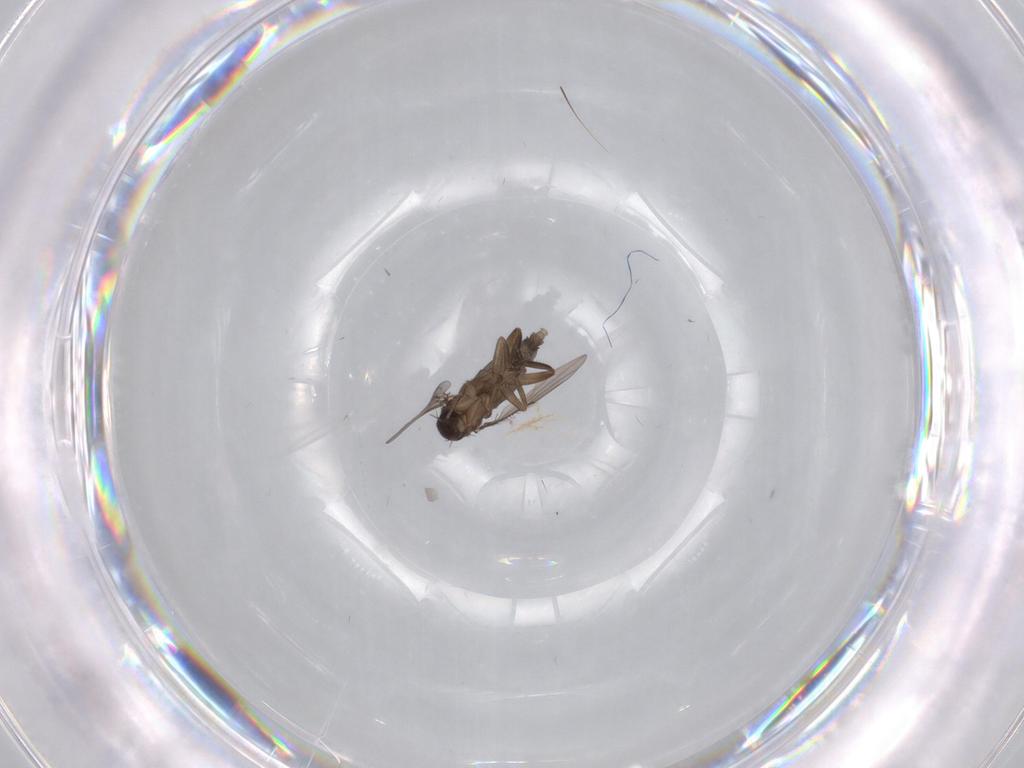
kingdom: Animalia
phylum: Arthropoda
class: Insecta
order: Diptera
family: Phoridae
